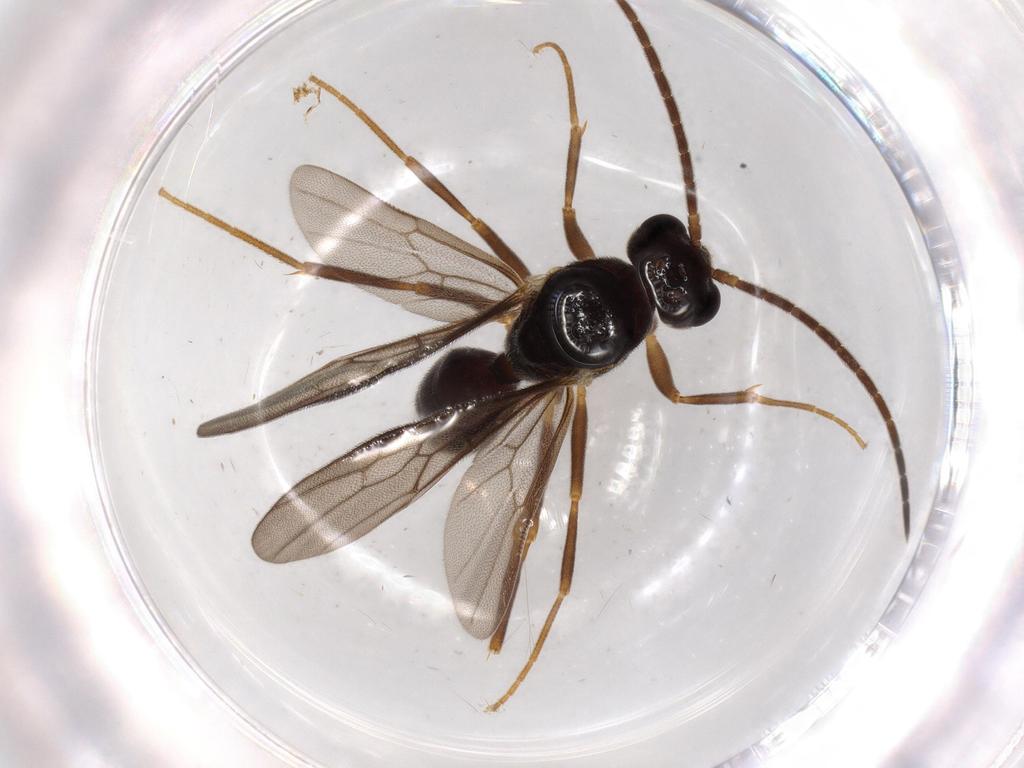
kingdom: Animalia
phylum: Arthropoda
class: Insecta
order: Hymenoptera
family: Formicidae
